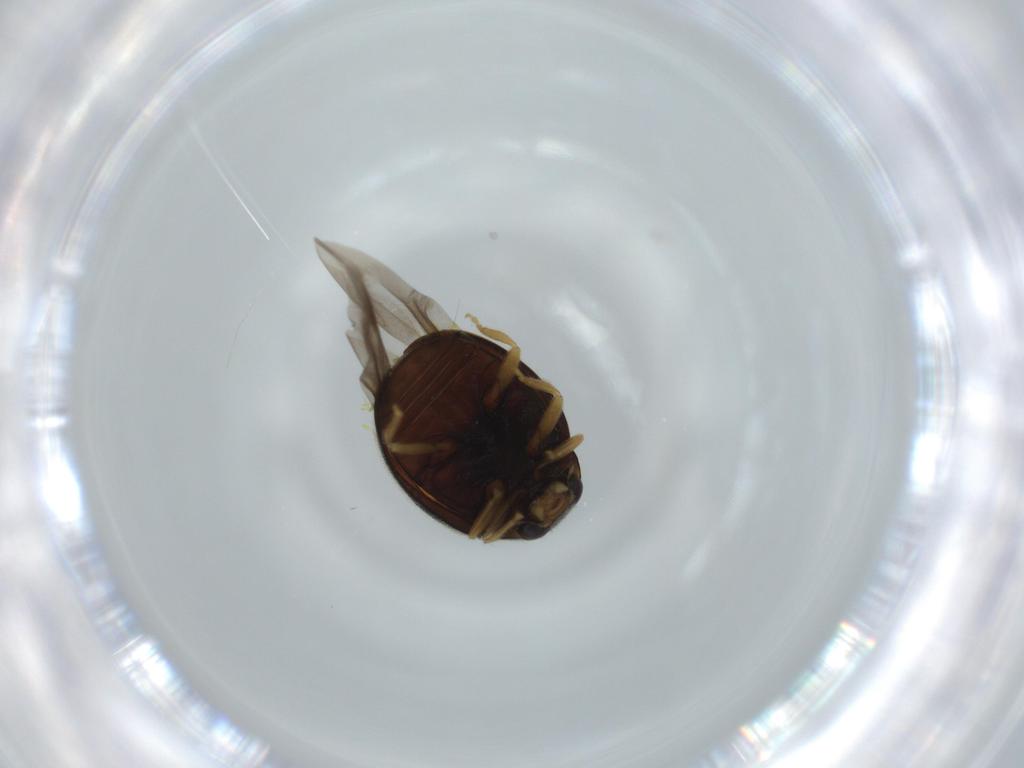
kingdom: Animalia
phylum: Arthropoda
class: Insecta
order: Coleoptera
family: Coccinellidae
